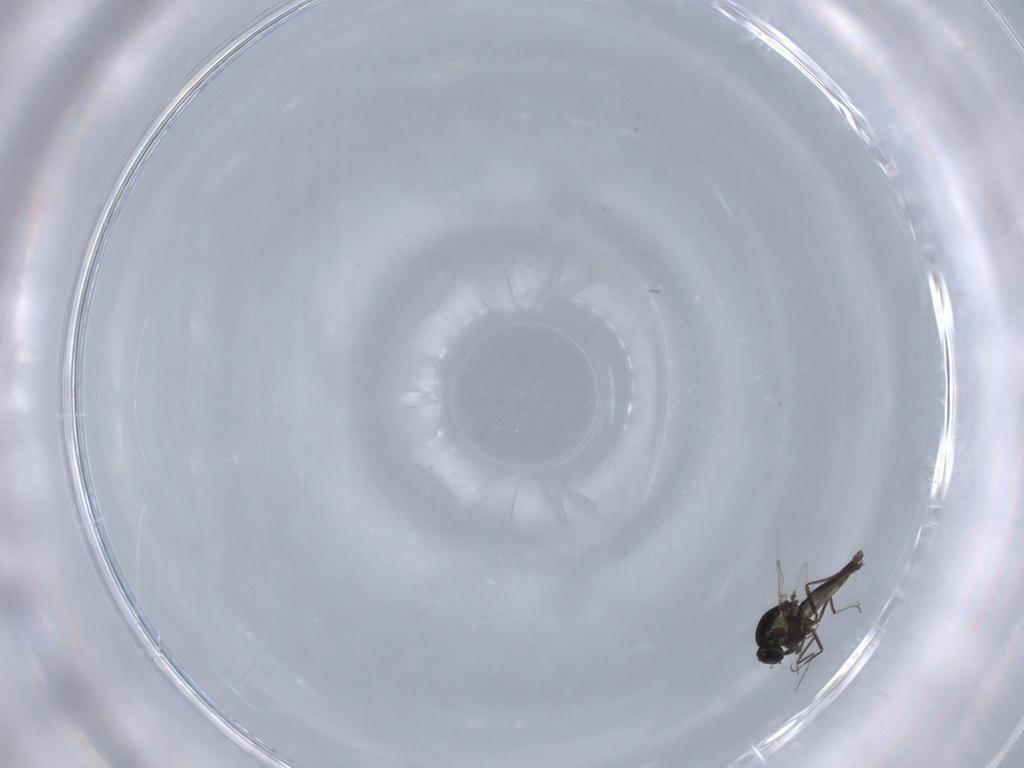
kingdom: Animalia
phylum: Arthropoda
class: Insecta
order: Diptera
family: Ceratopogonidae
